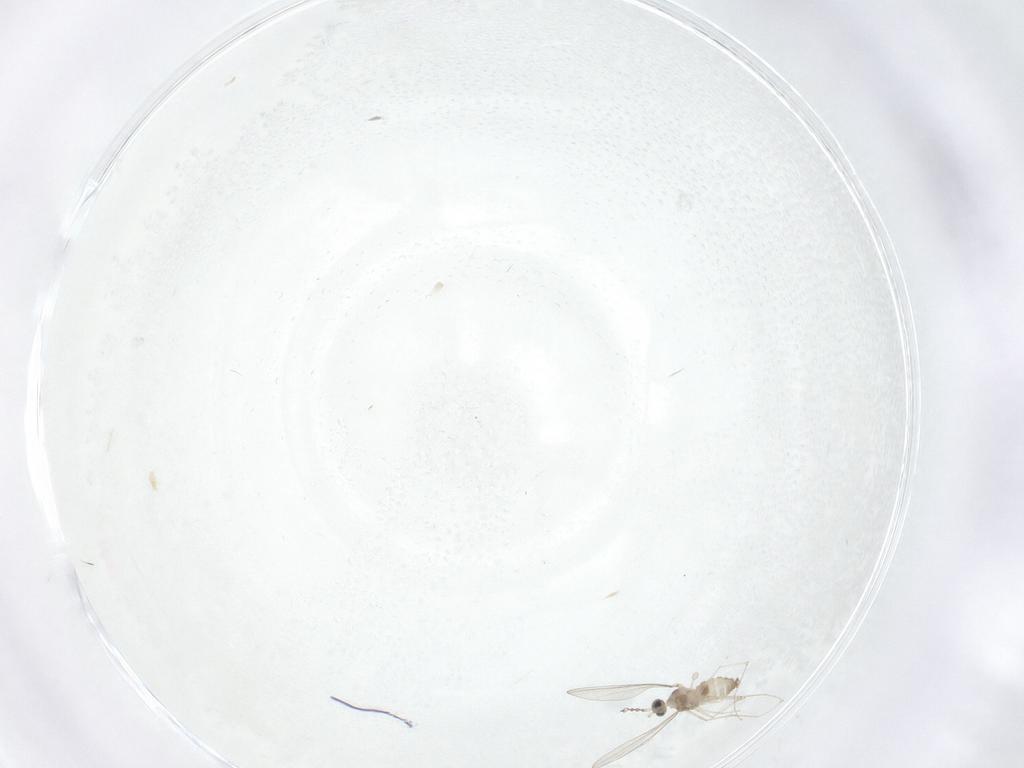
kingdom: Animalia
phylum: Arthropoda
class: Insecta
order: Diptera
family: Cecidomyiidae
